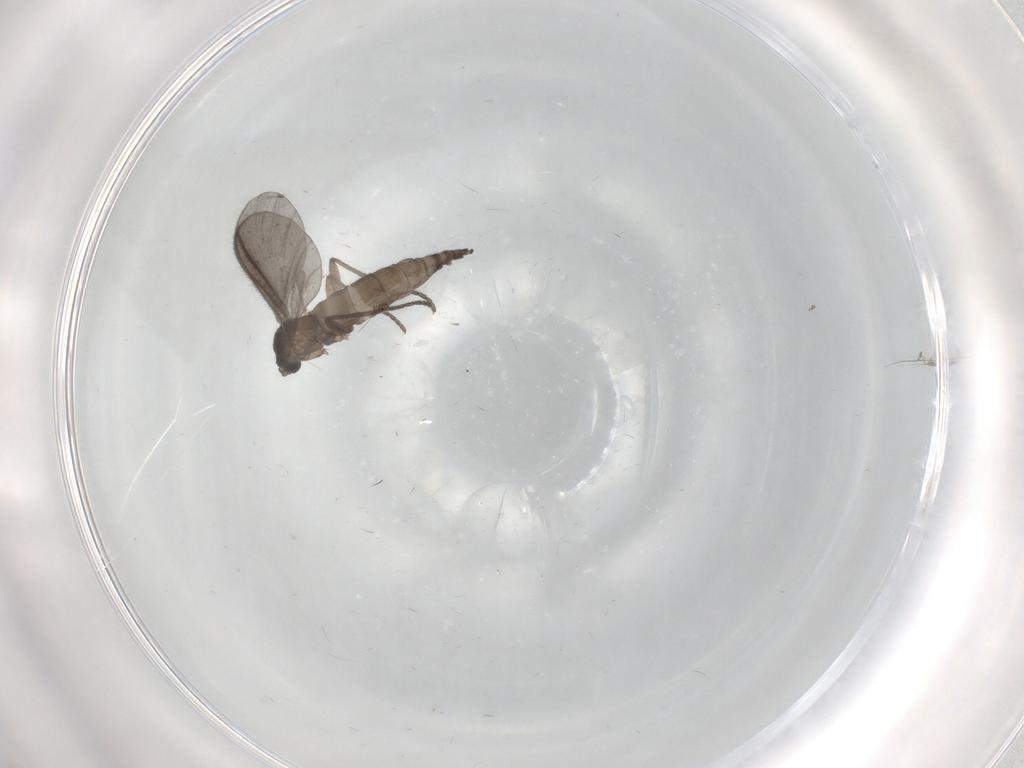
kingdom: Animalia
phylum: Arthropoda
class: Insecta
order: Diptera
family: Sciaridae
